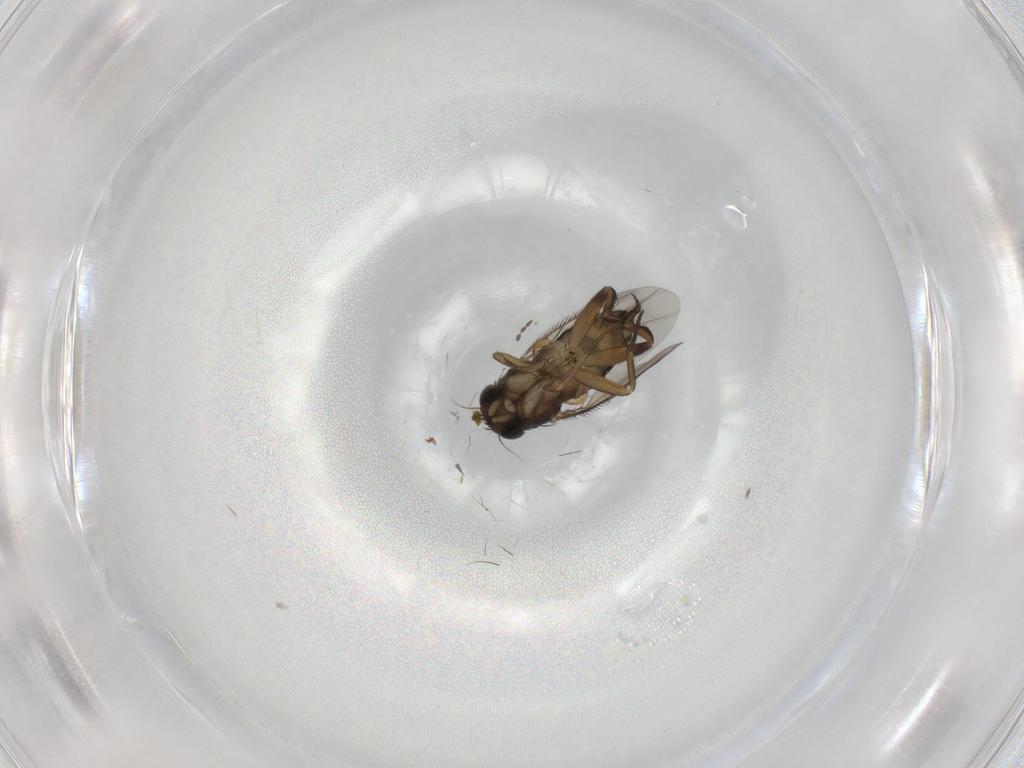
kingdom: Animalia
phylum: Arthropoda
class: Insecta
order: Diptera
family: Phoridae
